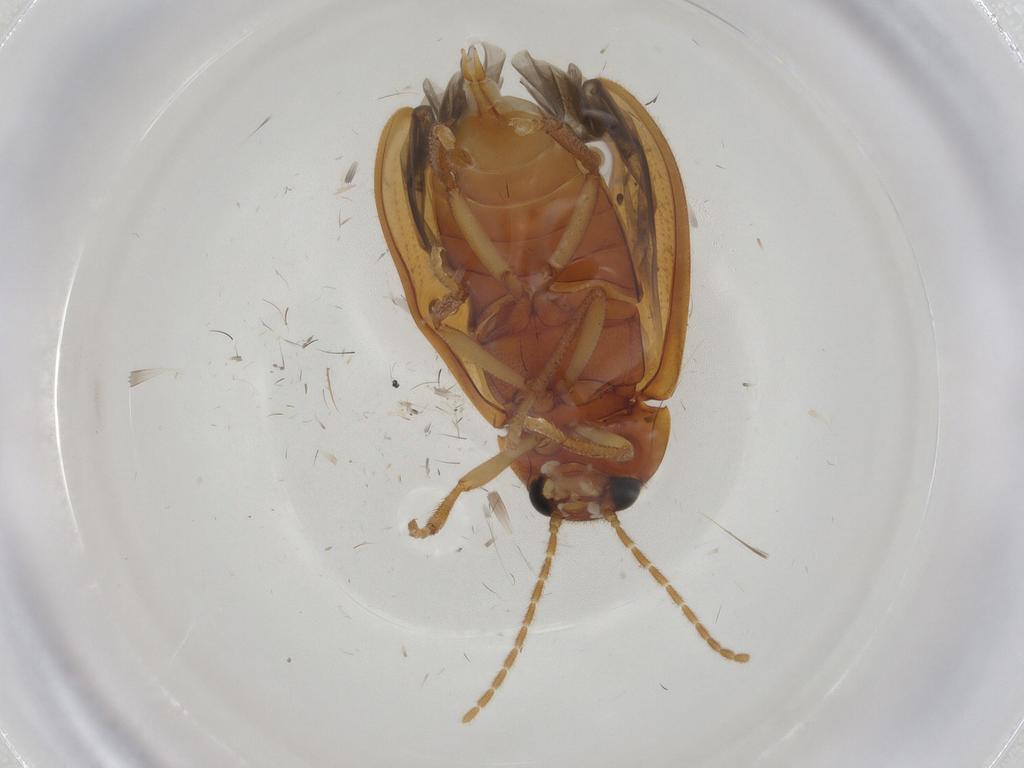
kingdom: Animalia
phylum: Arthropoda
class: Insecta
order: Coleoptera
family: Ptilodactylidae
